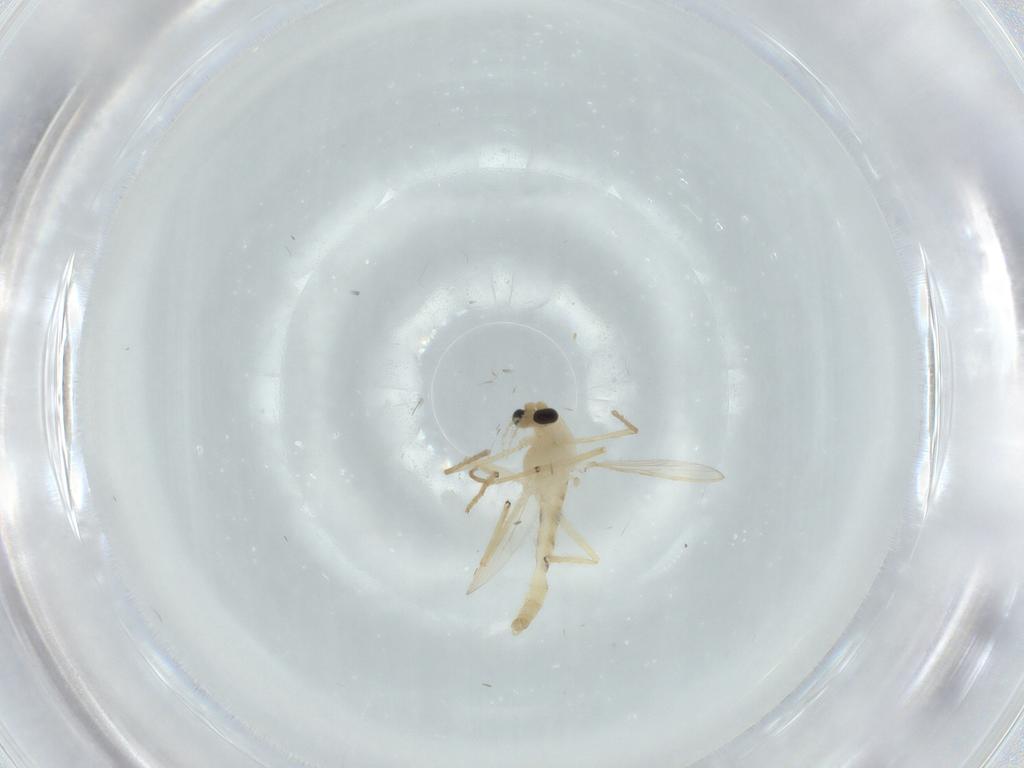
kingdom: Animalia
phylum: Arthropoda
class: Insecta
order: Diptera
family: Chironomidae
